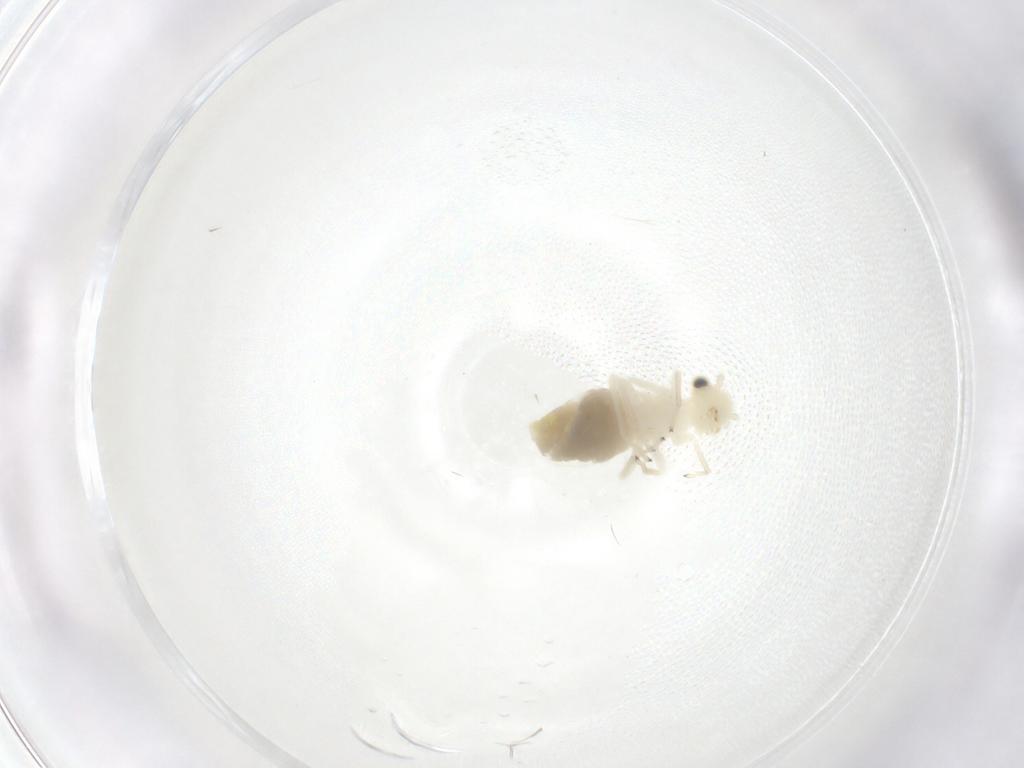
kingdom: Animalia
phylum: Arthropoda
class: Insecta
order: Psocodea
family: Caeciliusidae
